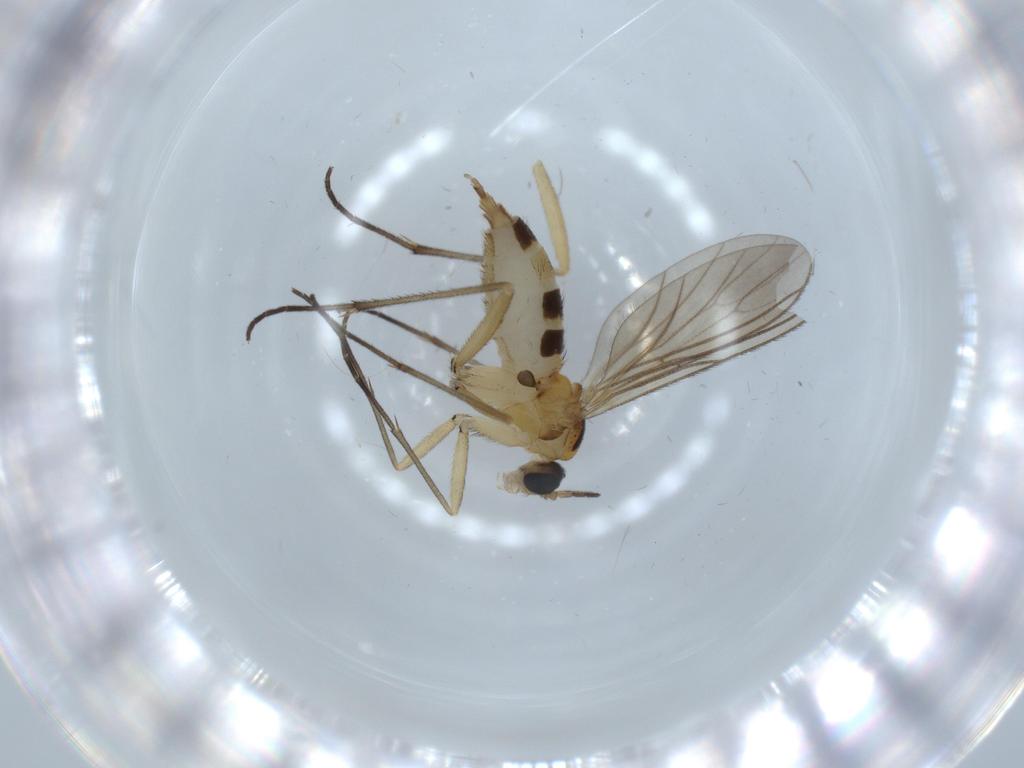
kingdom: Animalia
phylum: Arthropoda
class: Insecta
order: Diptera
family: Sciaridae
